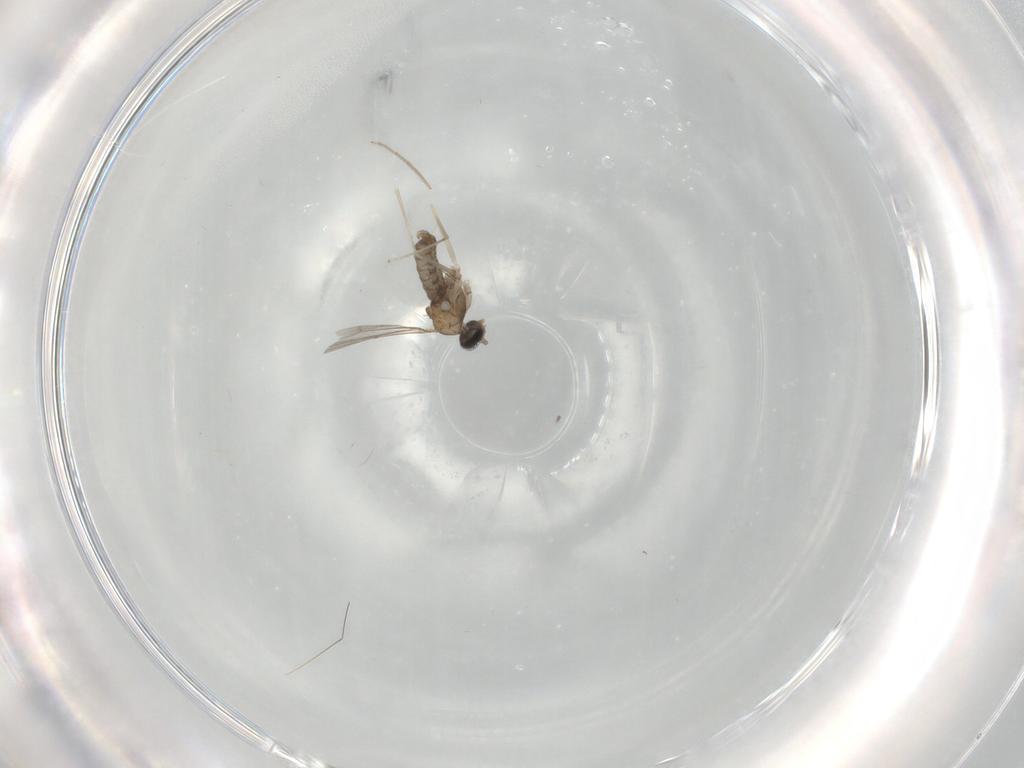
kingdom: Animalia
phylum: Arthropoda
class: Insecta
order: Diptera
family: Cecidomyiidae
